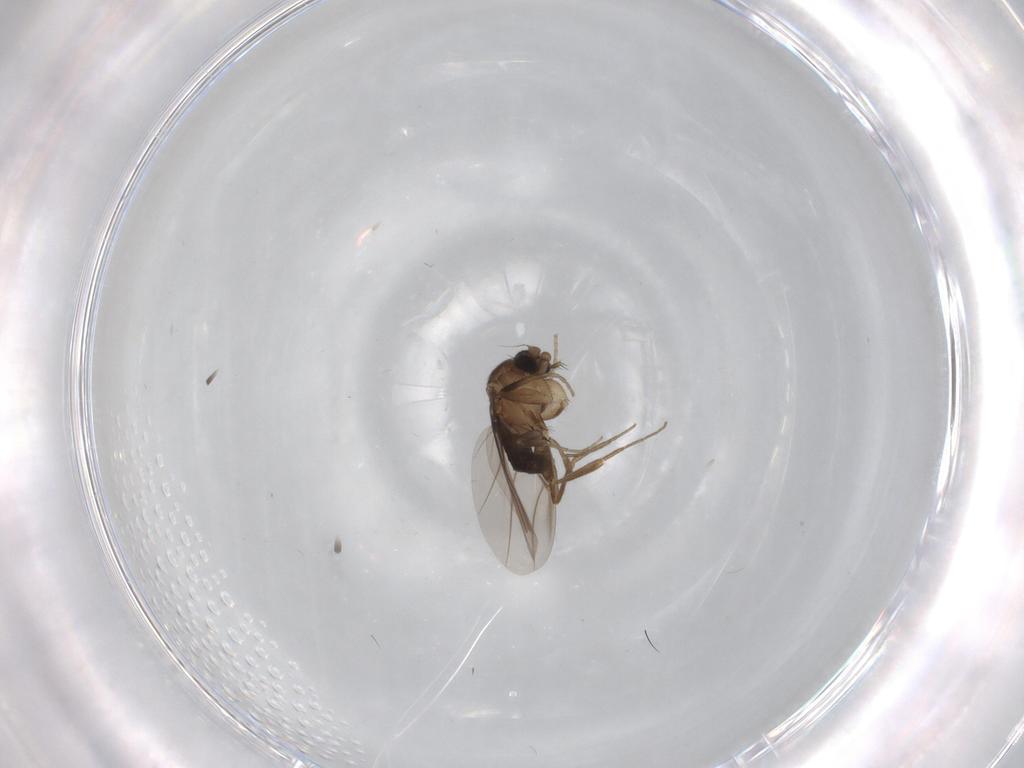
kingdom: Animalia
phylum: Arthropoda
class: Insecta
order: Diptera
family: Phoridae
